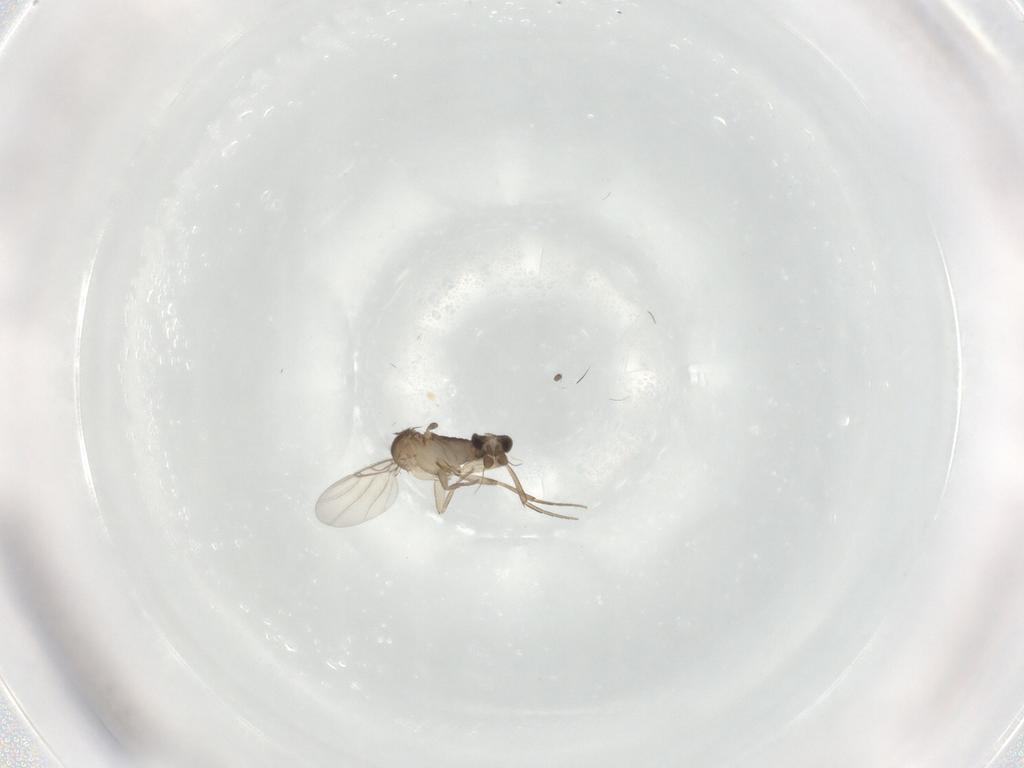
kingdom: Animalia
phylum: Arthropoda
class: Insecta
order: Diptera
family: Phoridae
